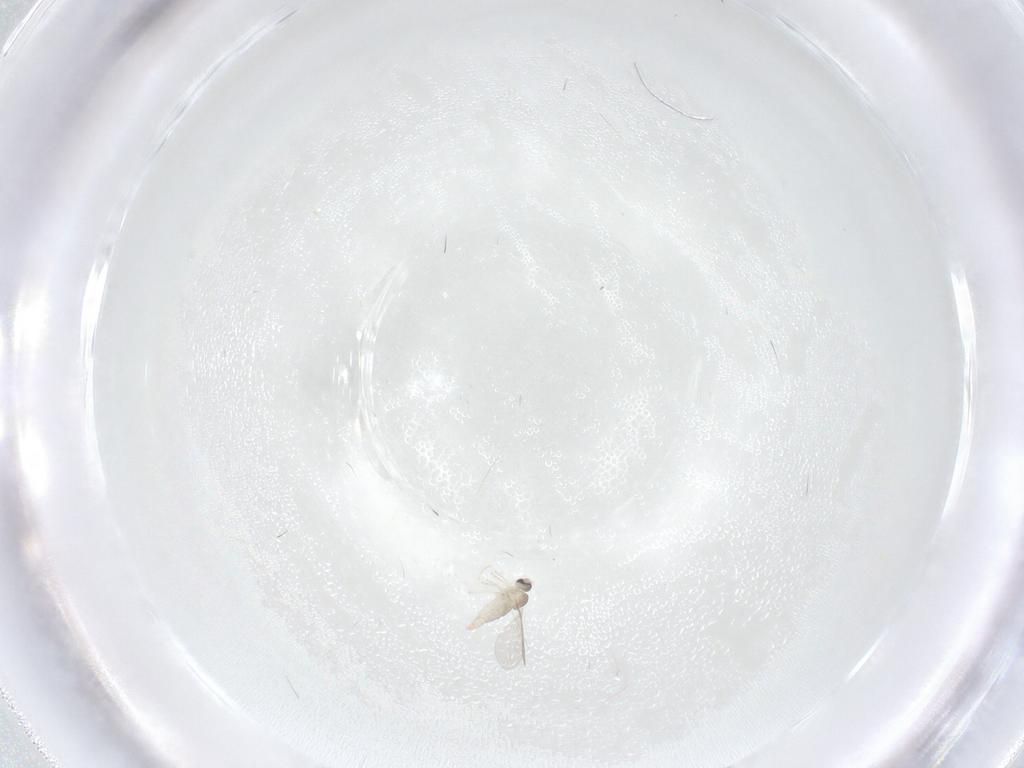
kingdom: Animalia
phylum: Arthropoda
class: Insecta
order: Diptera
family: Cecidomyiidae
